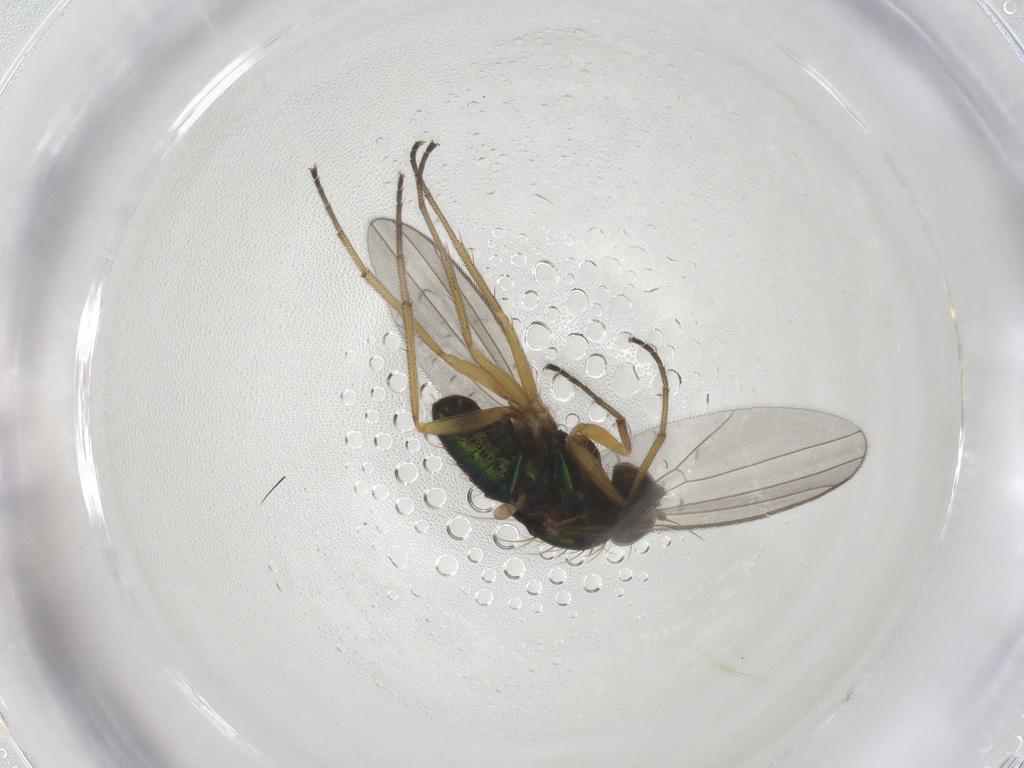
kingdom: Animalia
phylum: Arthropoda
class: Insecta
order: Diptera
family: Dolichopodidae
